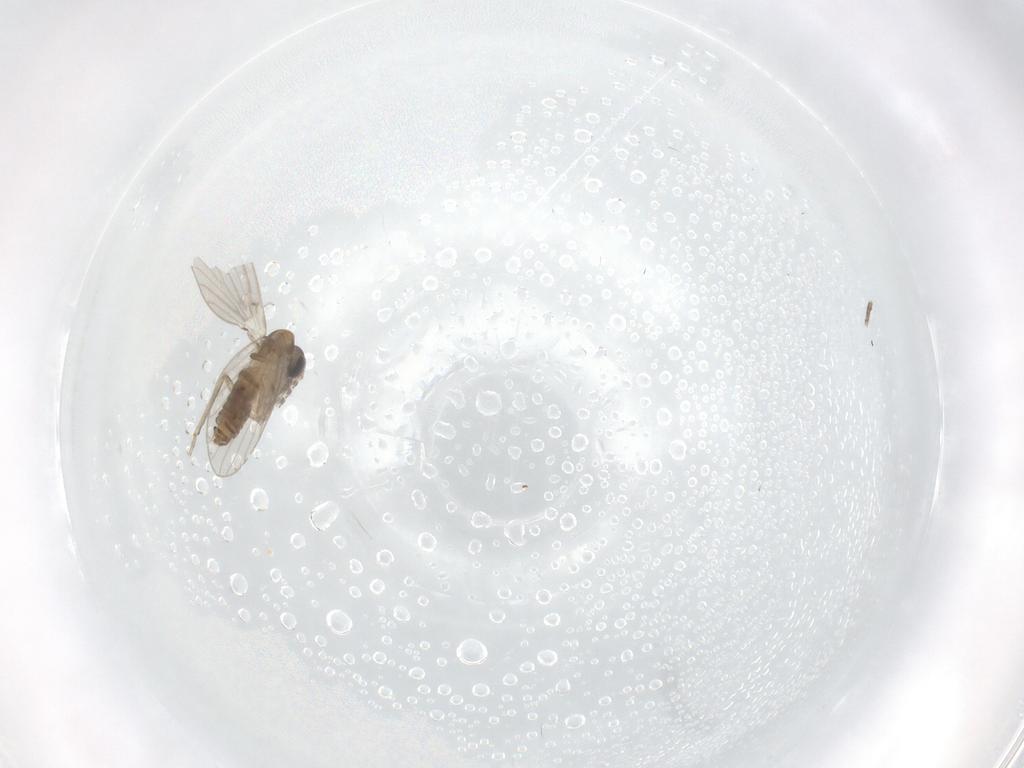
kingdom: Animalia
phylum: Arthropoda
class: Insecta
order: Diptera
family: Psychodidae
